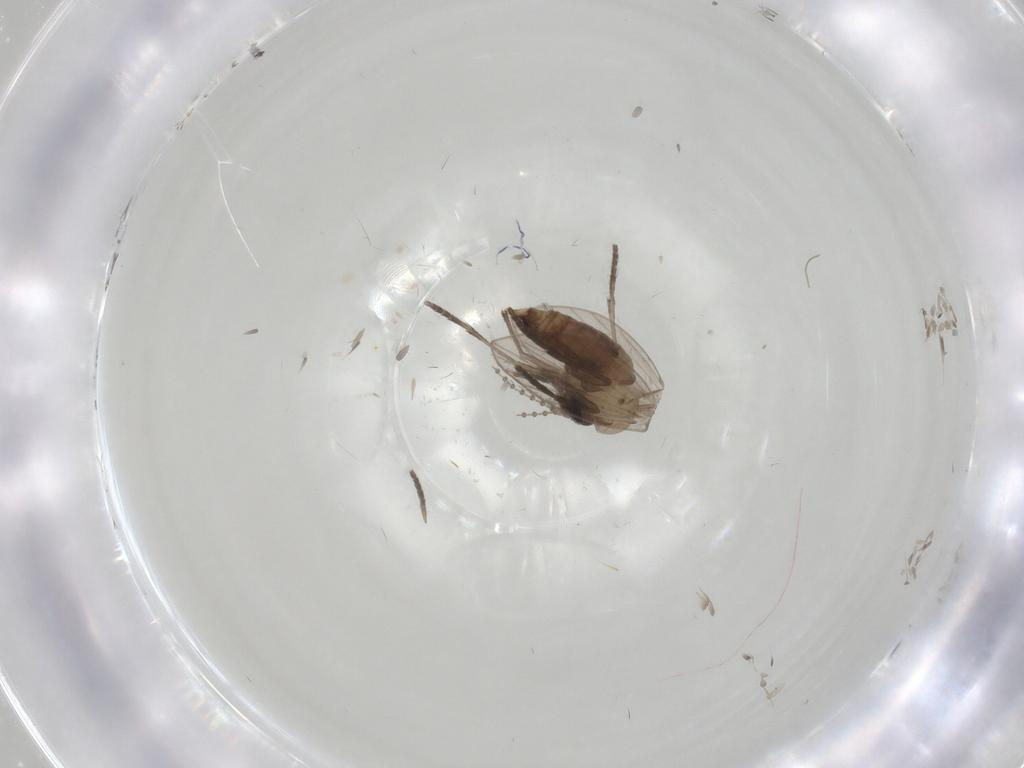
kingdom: Animalia
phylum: Arthropoda
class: Insecta
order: Diptera
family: Psychodidae
